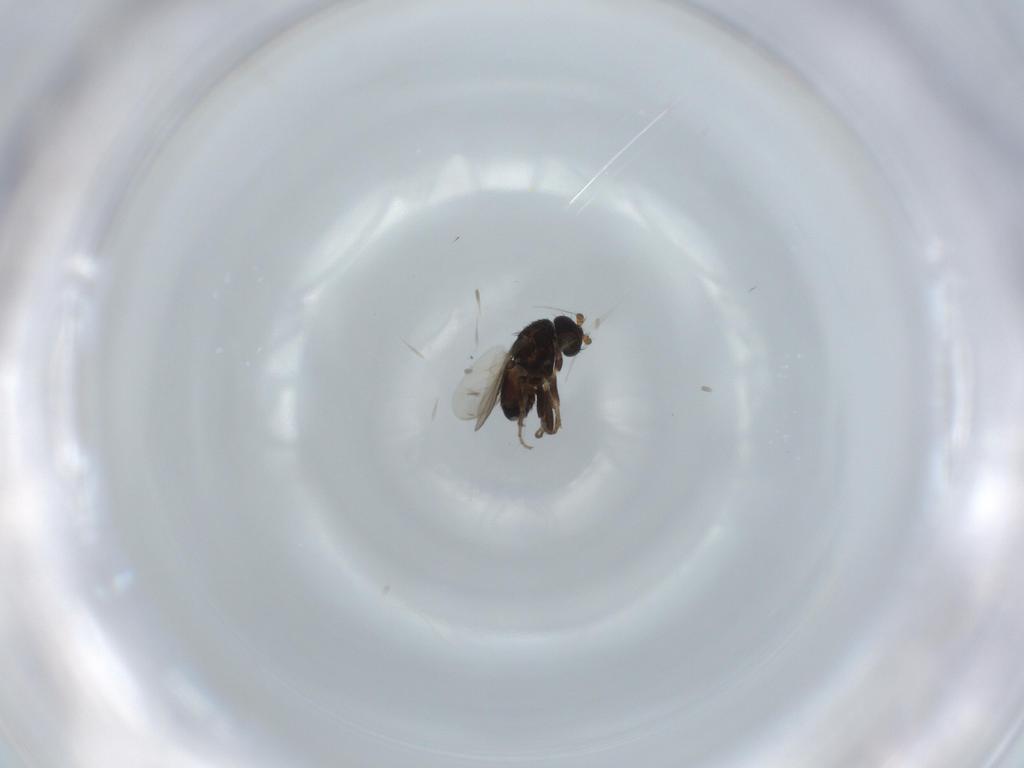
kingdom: Animalia
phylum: Arthropoda
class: Insecta
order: Diptera
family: Sphaeroceridae
